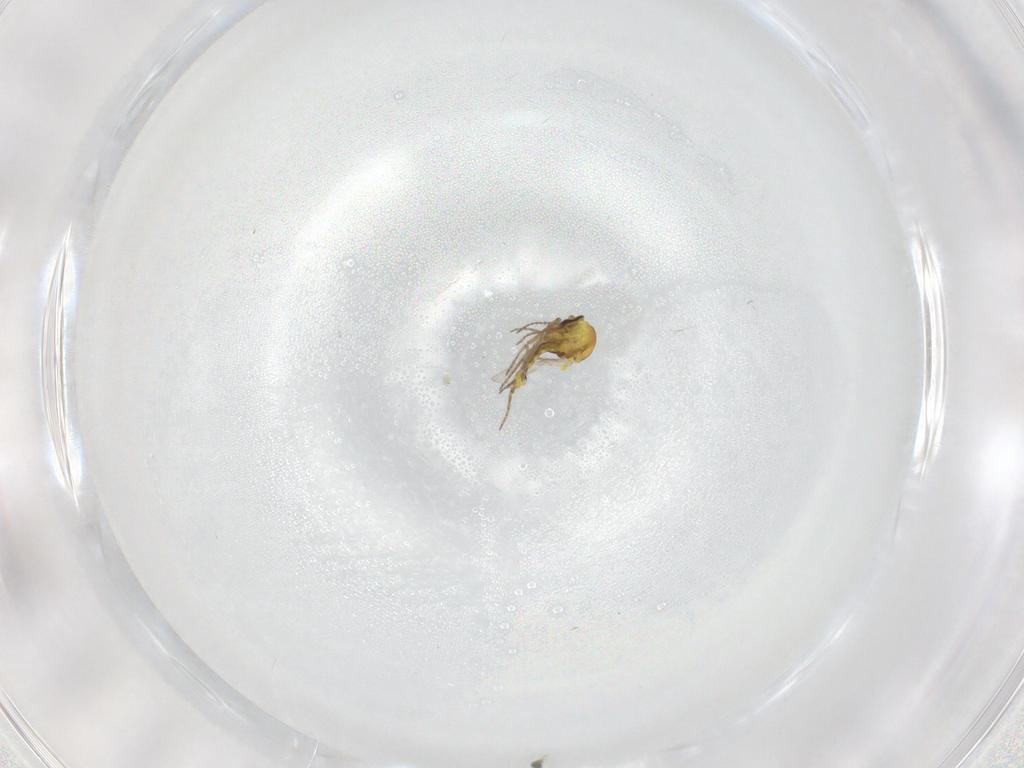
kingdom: Animalia
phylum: Arthropoda
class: Insecta
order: Diptera
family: Ceratopogonidae
